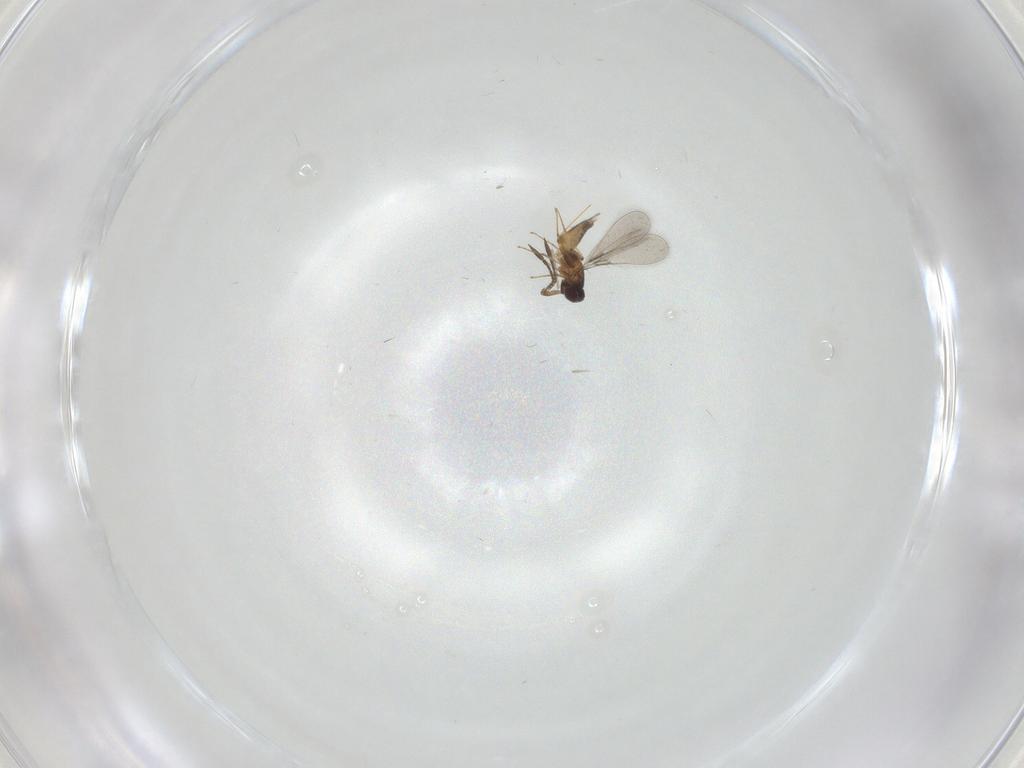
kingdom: Animalia
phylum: Arthropoda
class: Insecta
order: Hymenoptera
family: Mymaridae
